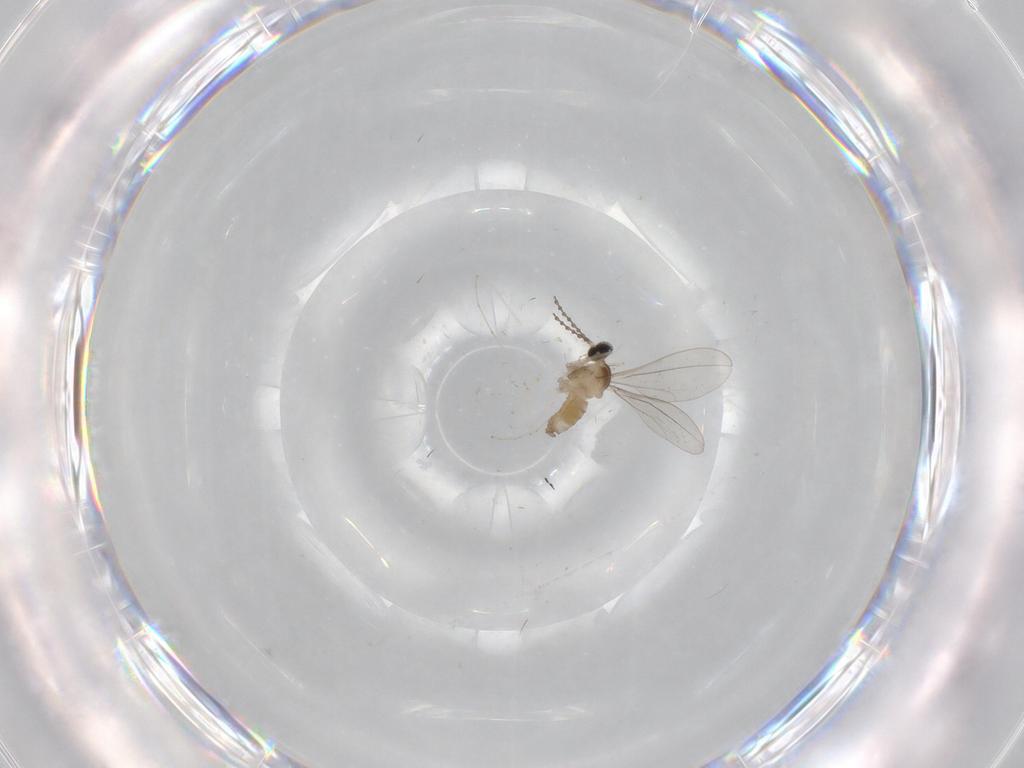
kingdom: Animalia
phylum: Arthropoda
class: Insecta
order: Diptera
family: Cecidomyiidae
